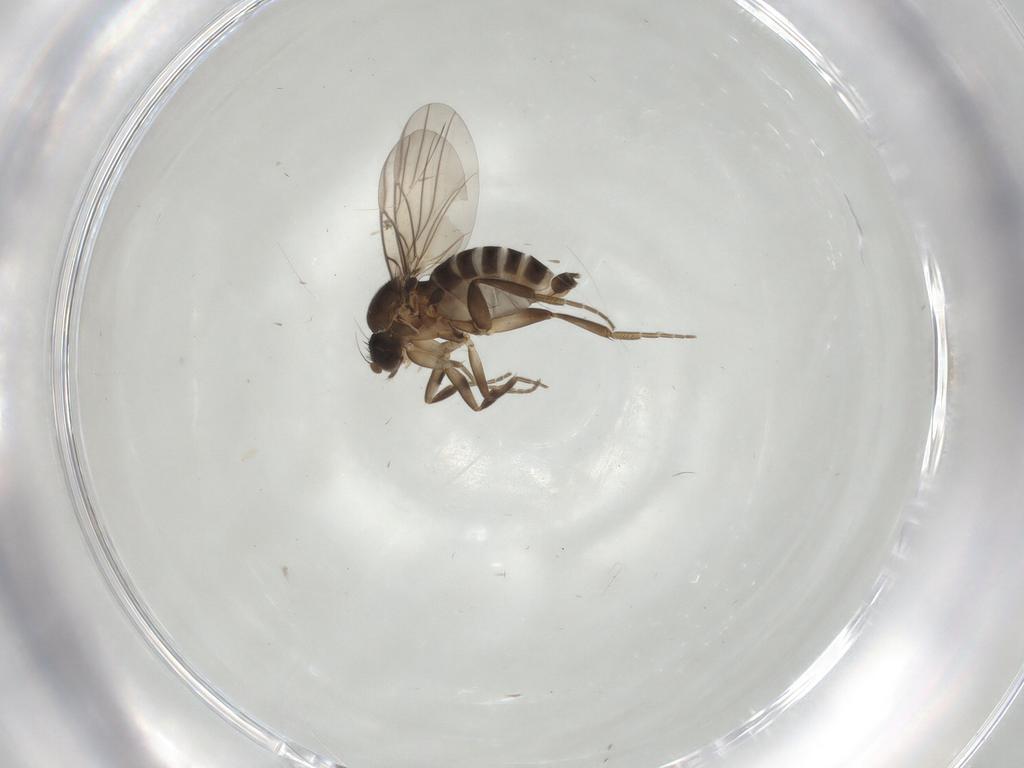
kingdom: Animalia
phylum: Arthropoda
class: Insecta
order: Diptera
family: Phoridae
